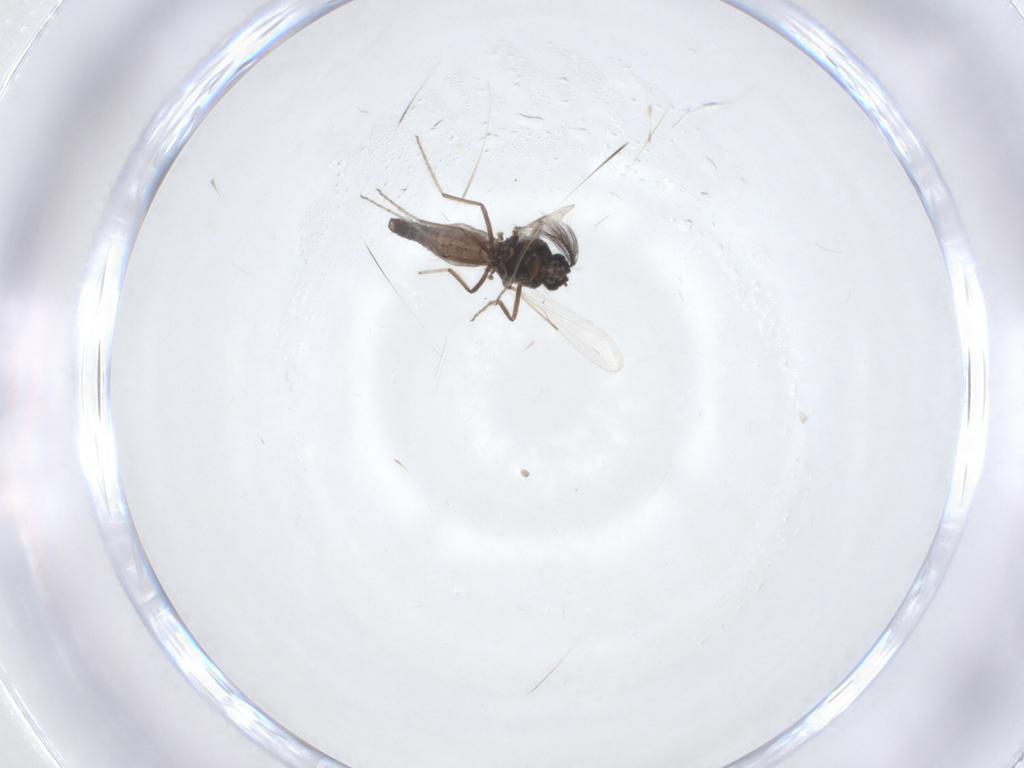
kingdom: Animalia
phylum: Arthropoda
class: Insecta
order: Diptera
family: Ceratopogonidae
